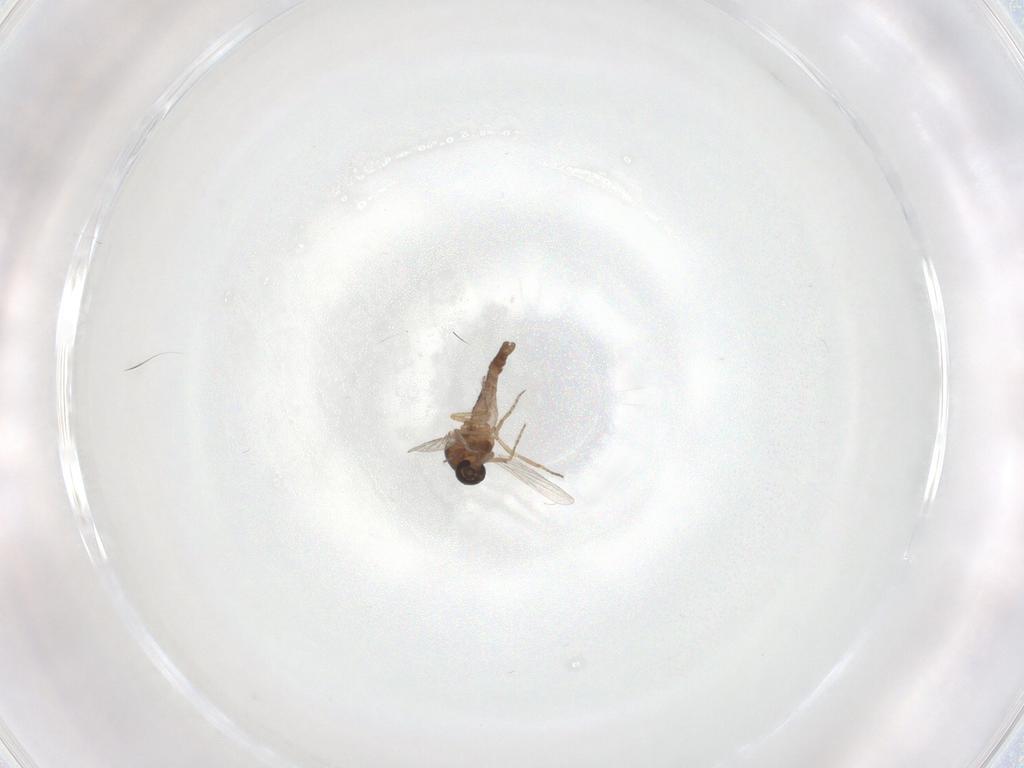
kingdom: Animalia
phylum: Arthropoda
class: Insecta
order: Diptera
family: Ceratopogonidae
